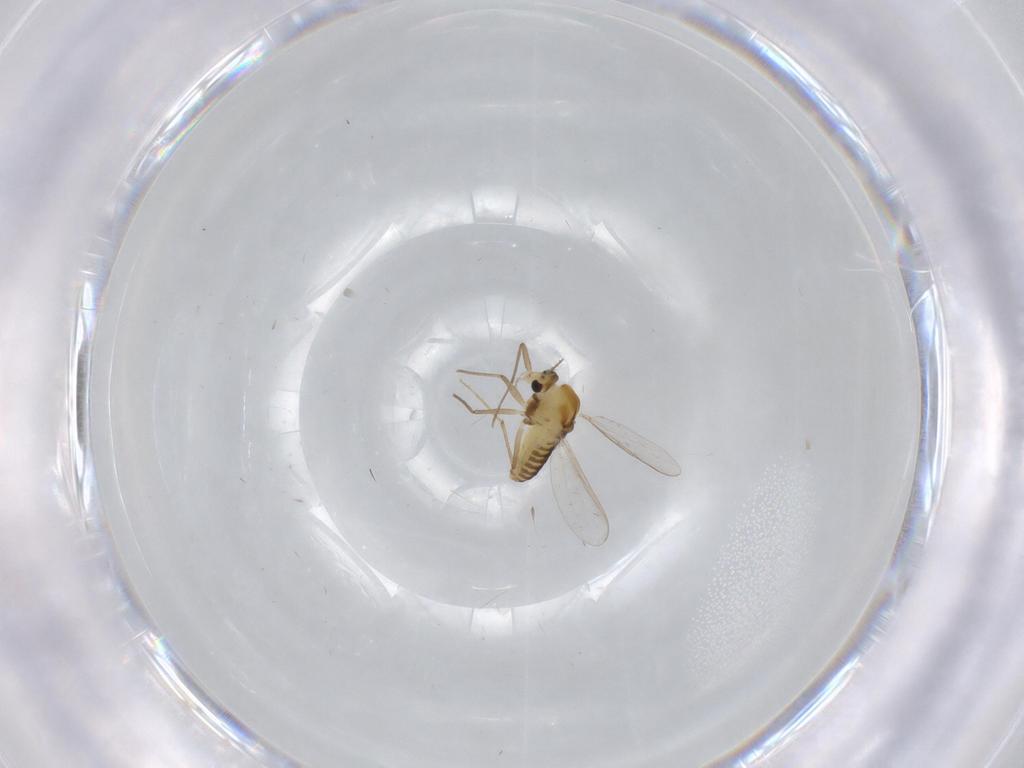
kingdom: Animalia
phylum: Arthropoda
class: Insecta
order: Diptera
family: Chironomidae
